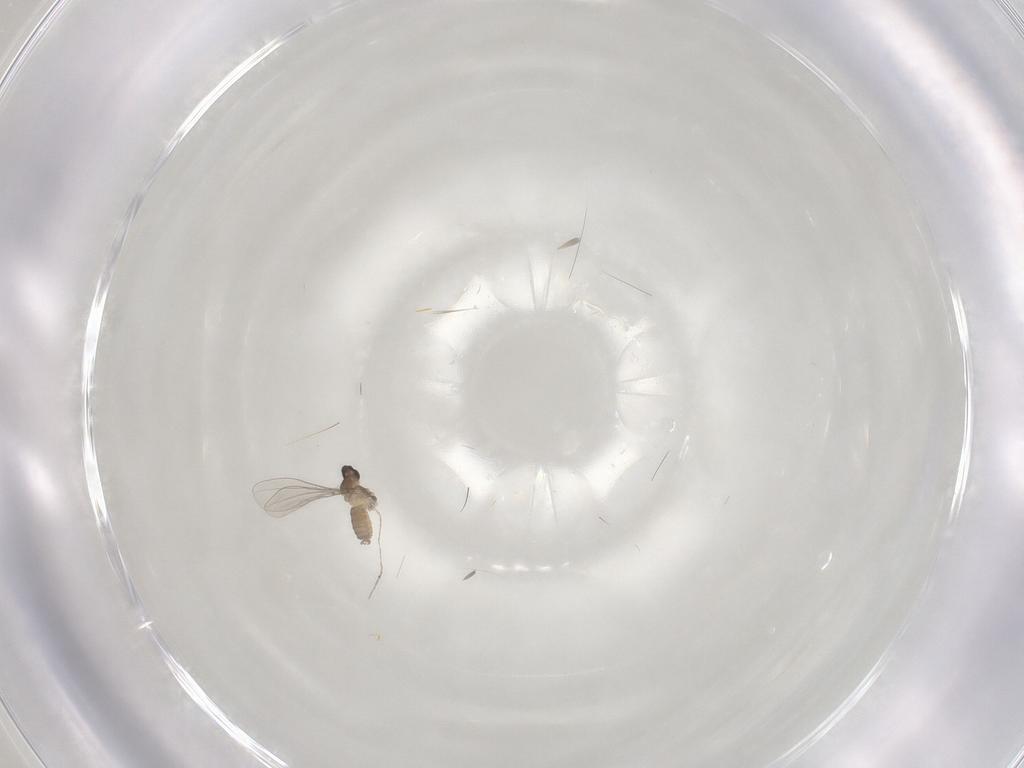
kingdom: Animalia
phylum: Arthropoda
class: Insecta
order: Diptera
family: Cecidomyiidae
